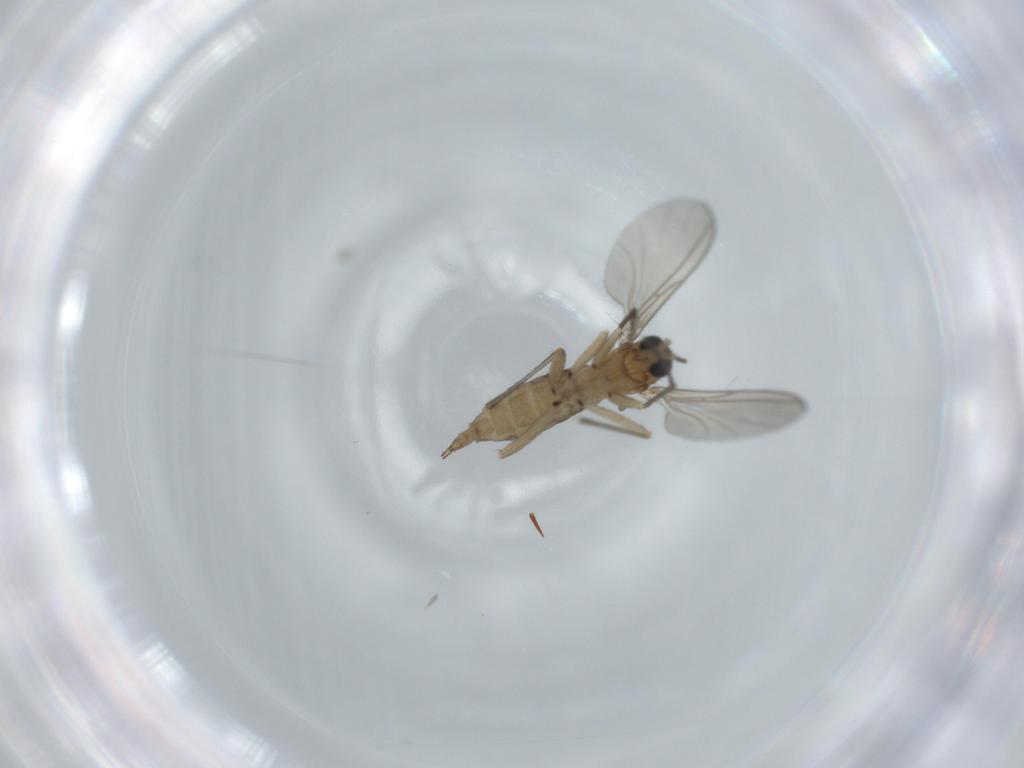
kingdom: Animalia
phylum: Arthropoda
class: Insecta
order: Diptera
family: Sciaridae
